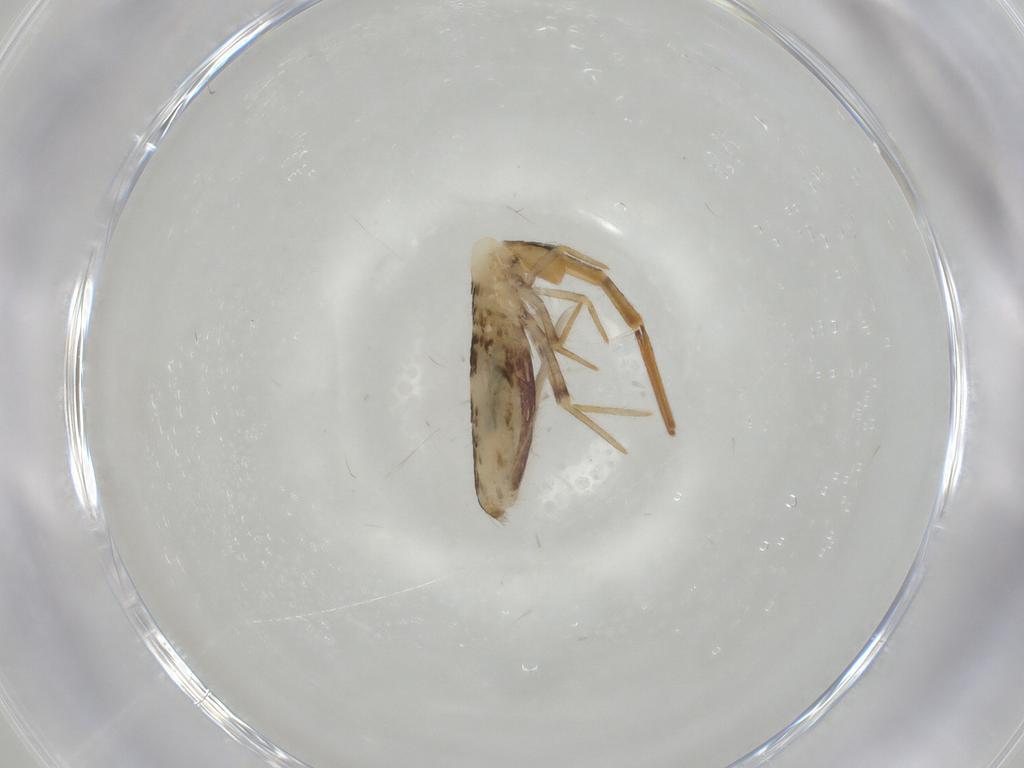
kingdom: Animalia
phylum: Arthropoda
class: Collembola
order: Poduromorpha
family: Hypogastruridae
